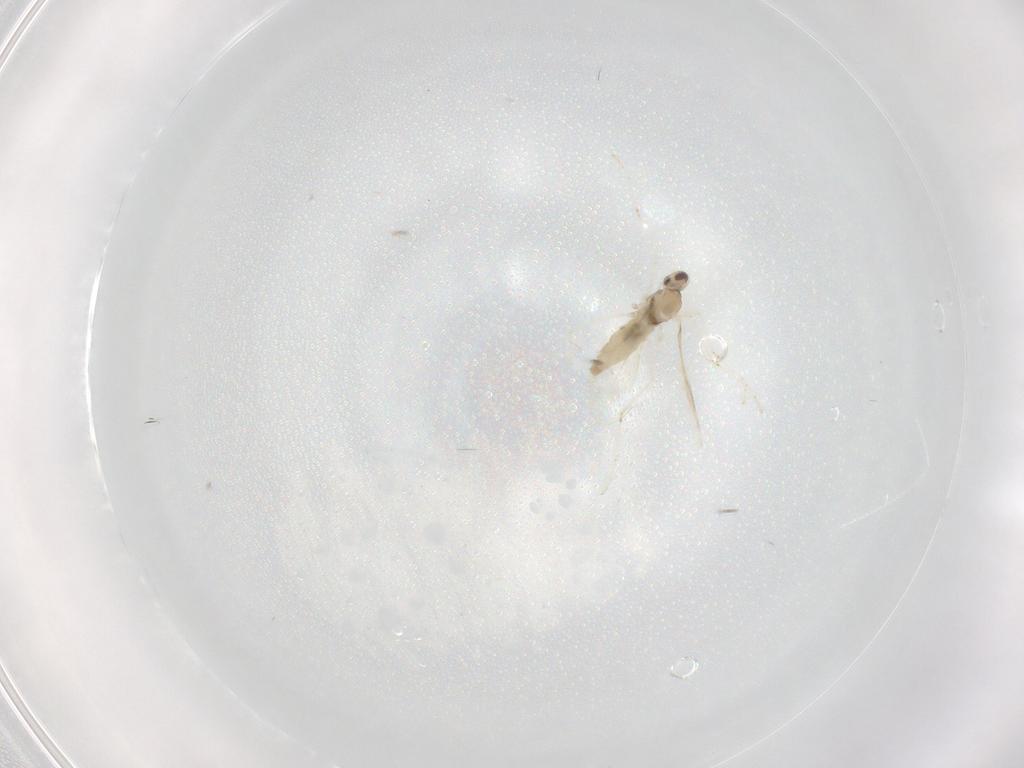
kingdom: Animalia
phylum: Arthropoda
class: Insecta
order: Diptera
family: Cecidomyiidae
